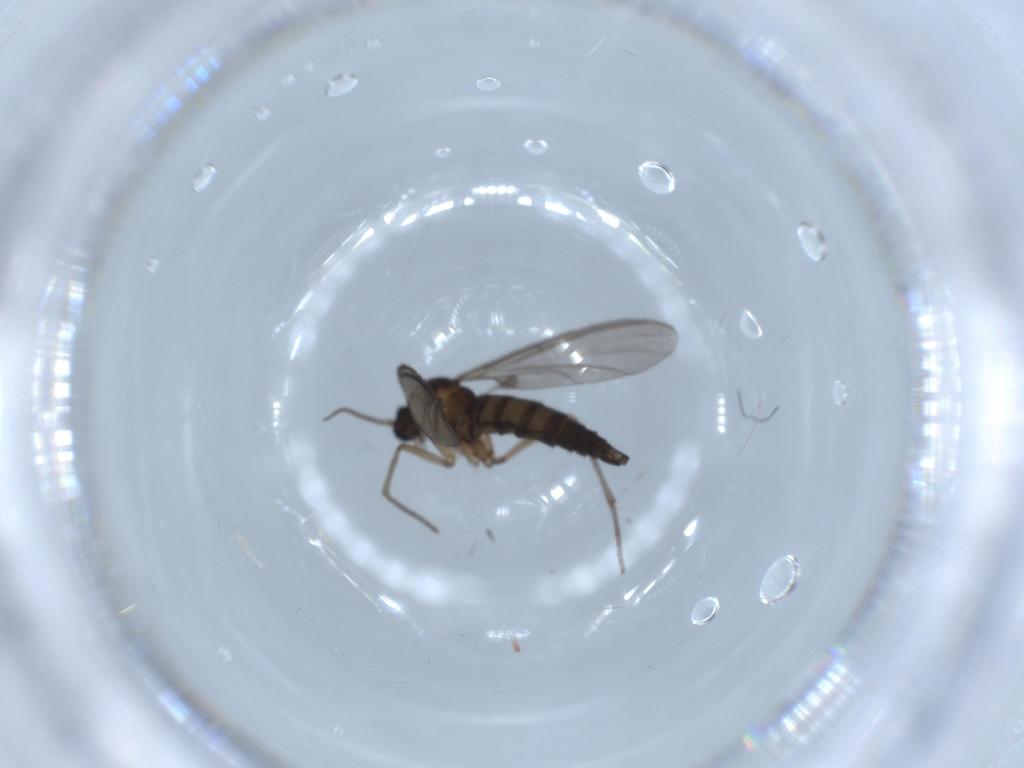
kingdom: Animalia
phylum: Arthropoda
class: Insecta
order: Diptera
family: Sciaridae
